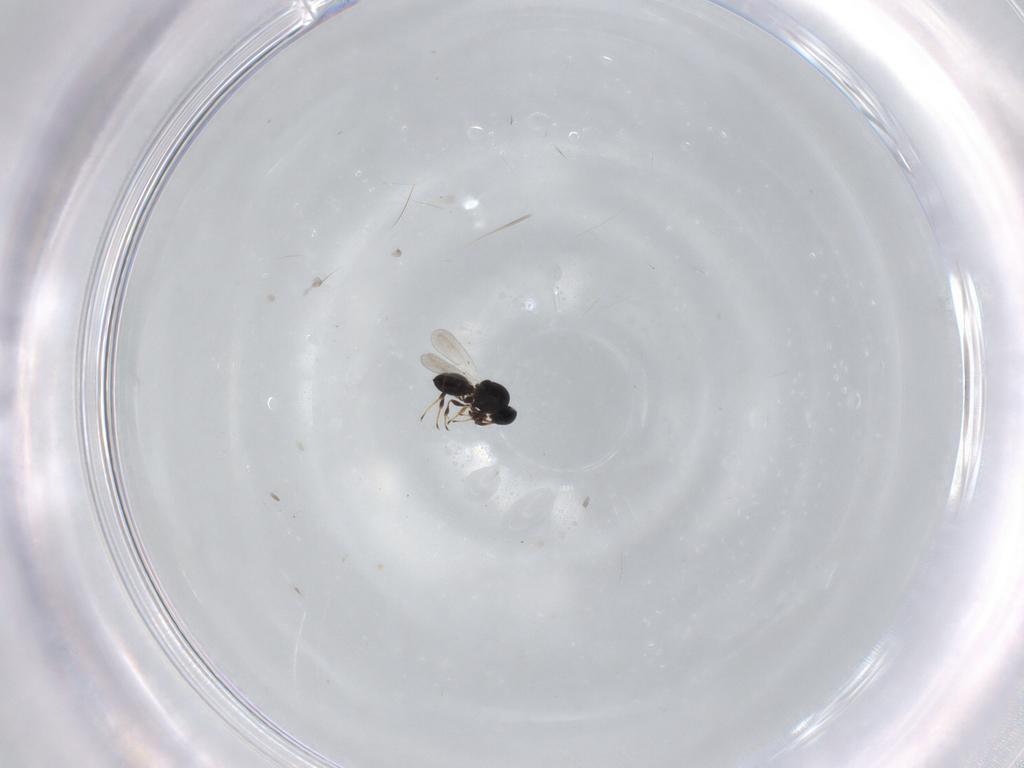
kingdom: Animalia
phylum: Arthropoda
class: Insecta
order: Hymenoptera
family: Platygastridae
